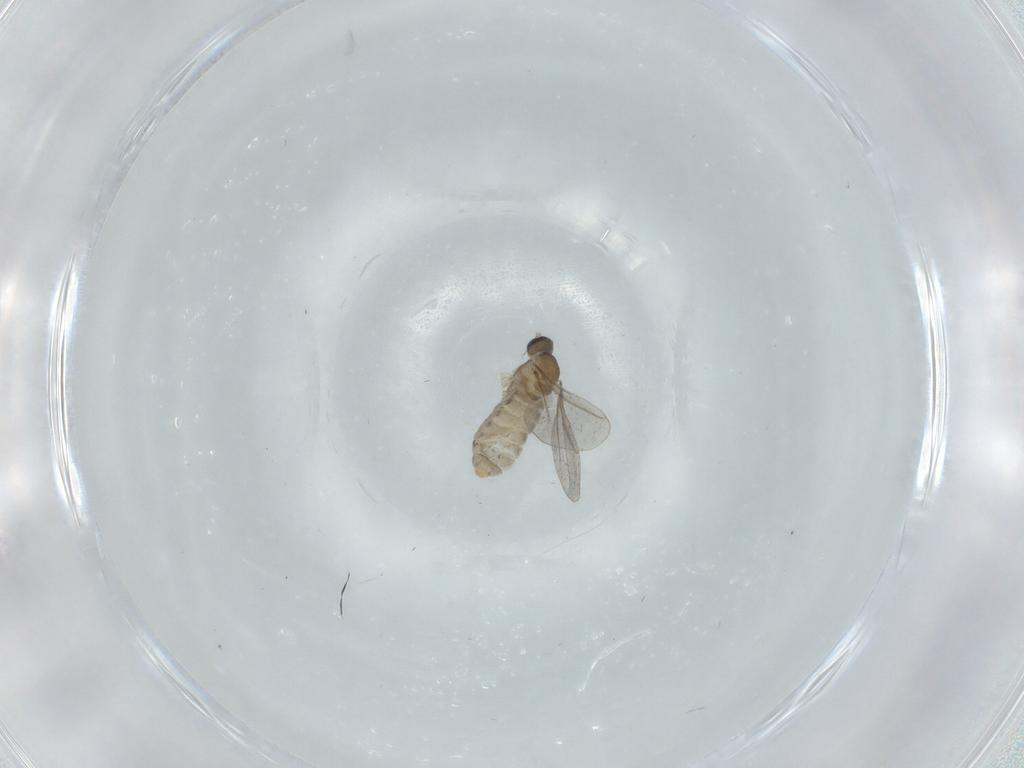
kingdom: Animalia
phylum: Arthropoda
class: Insecta
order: Diptera
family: Cecidomyiidae
